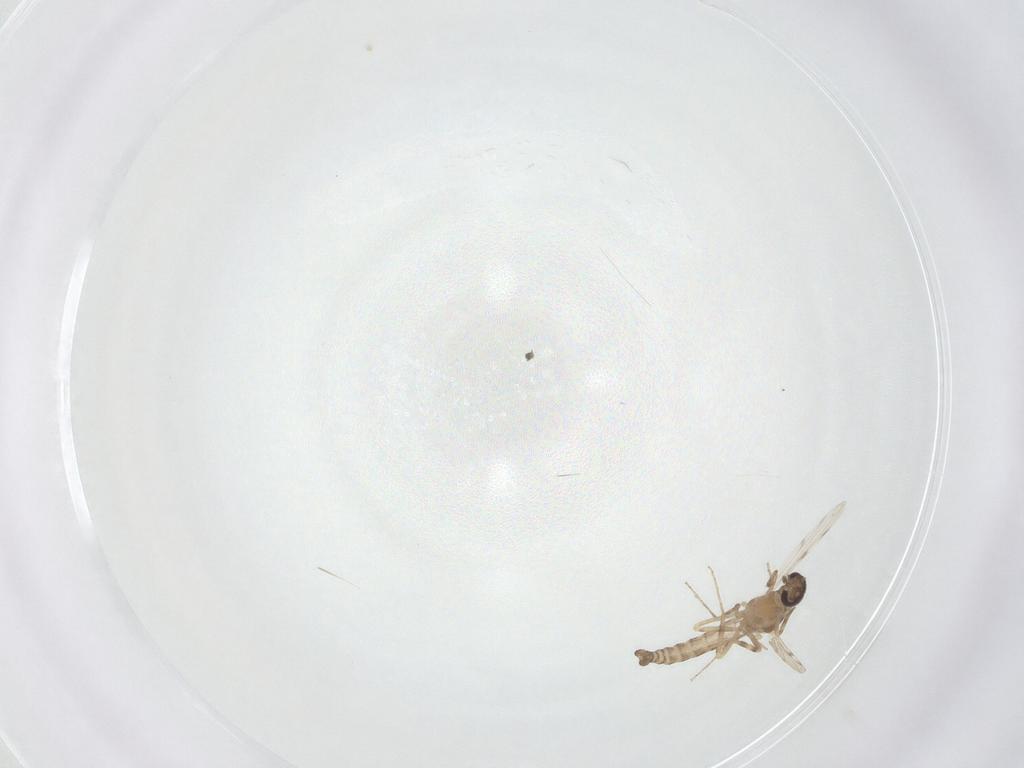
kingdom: Animalia
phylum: Arthropoda
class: Insecta
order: Diptera
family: Ceratopogonidae
